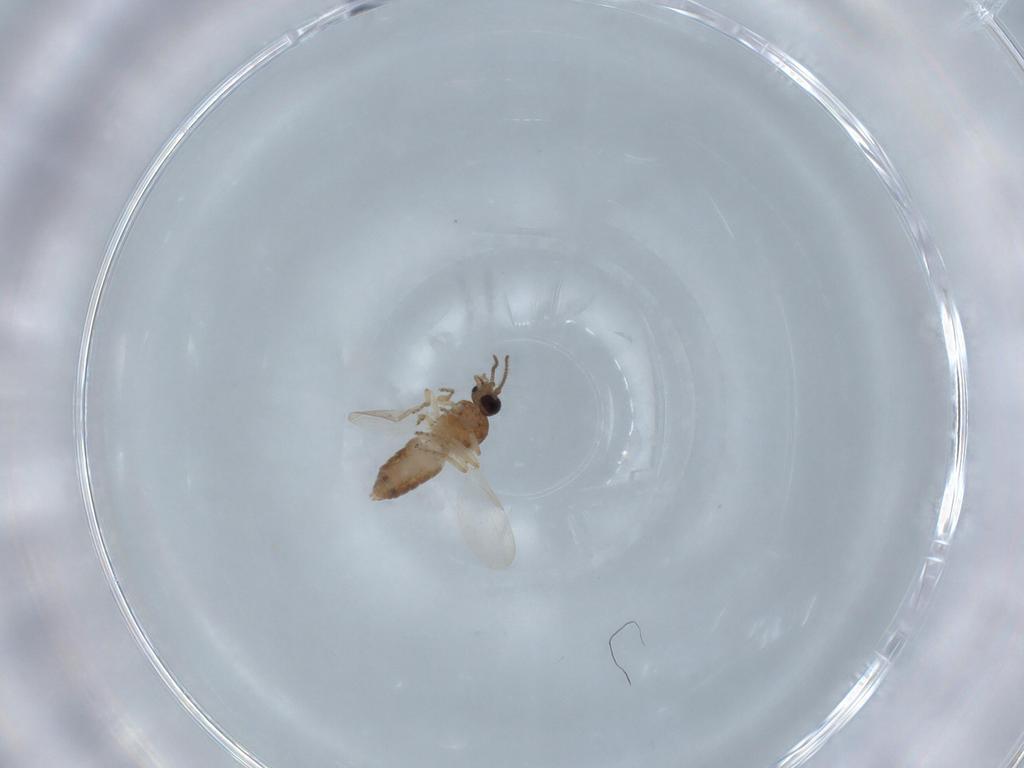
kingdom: Animalia
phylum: Arthropoda
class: Insecta
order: Diptera
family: Ceratopogonidae
